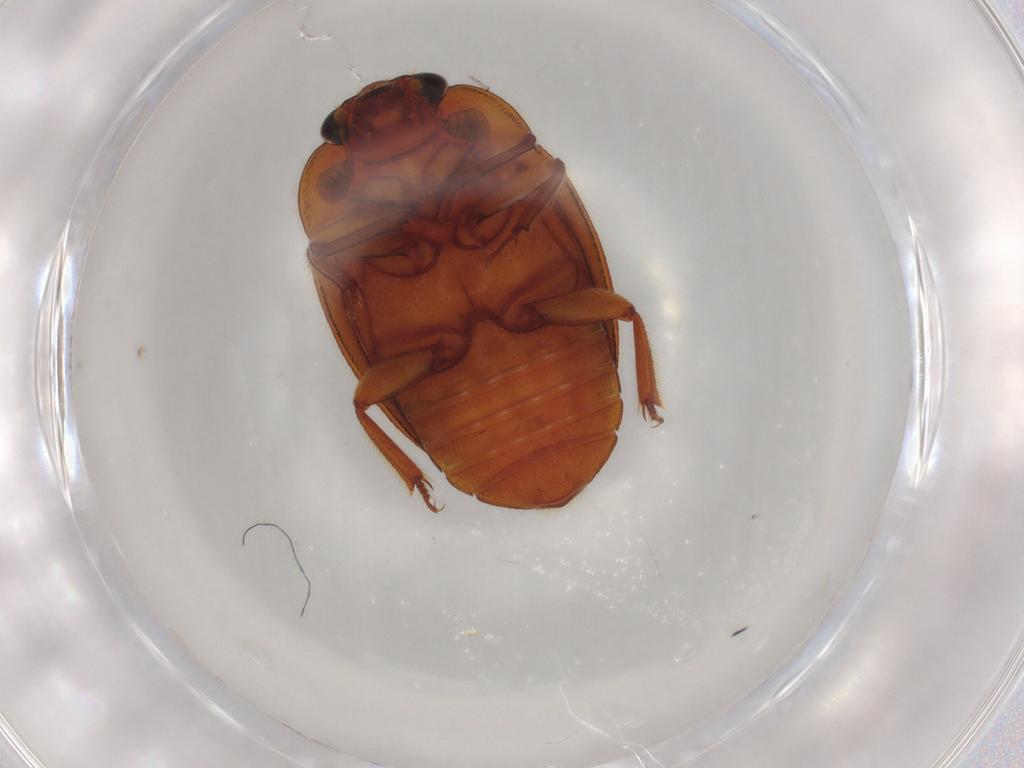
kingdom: Animalia
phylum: Arthropoda
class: Insecta
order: Coleoptera
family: Nitidulidae
